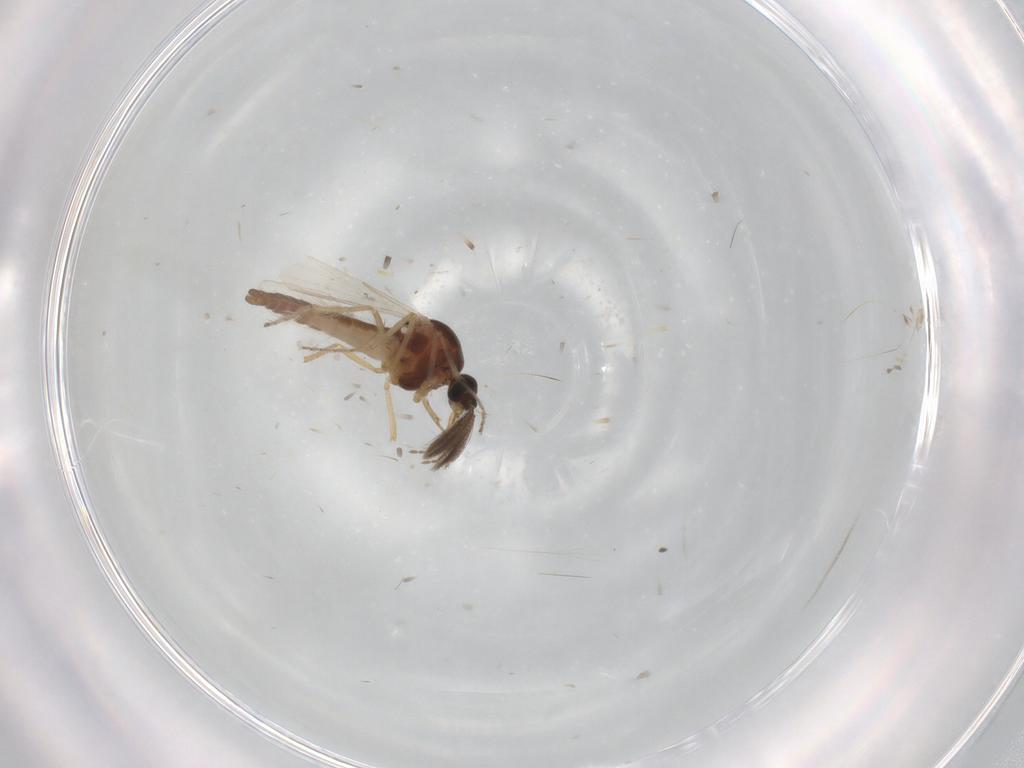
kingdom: Animalia
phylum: Arthropoda
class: Insecta
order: Diptera
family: Ceratopogonidae
